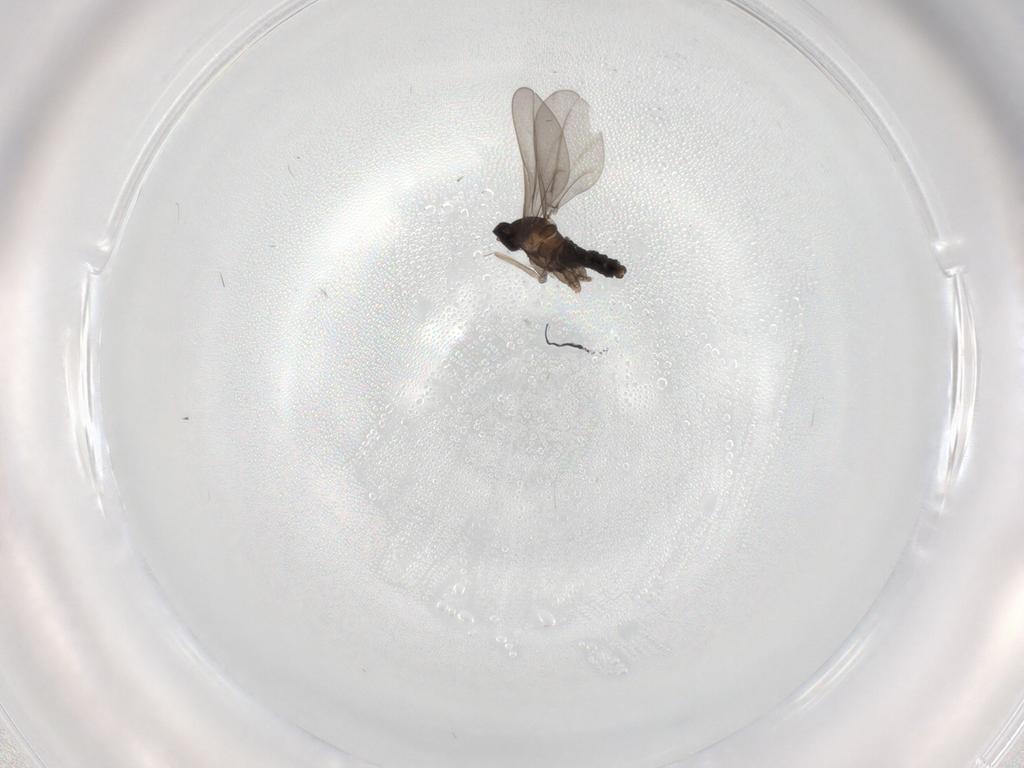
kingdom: Animalia
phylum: Arthropoda
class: Insecta
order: Diptera
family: Cecidomyiidae
